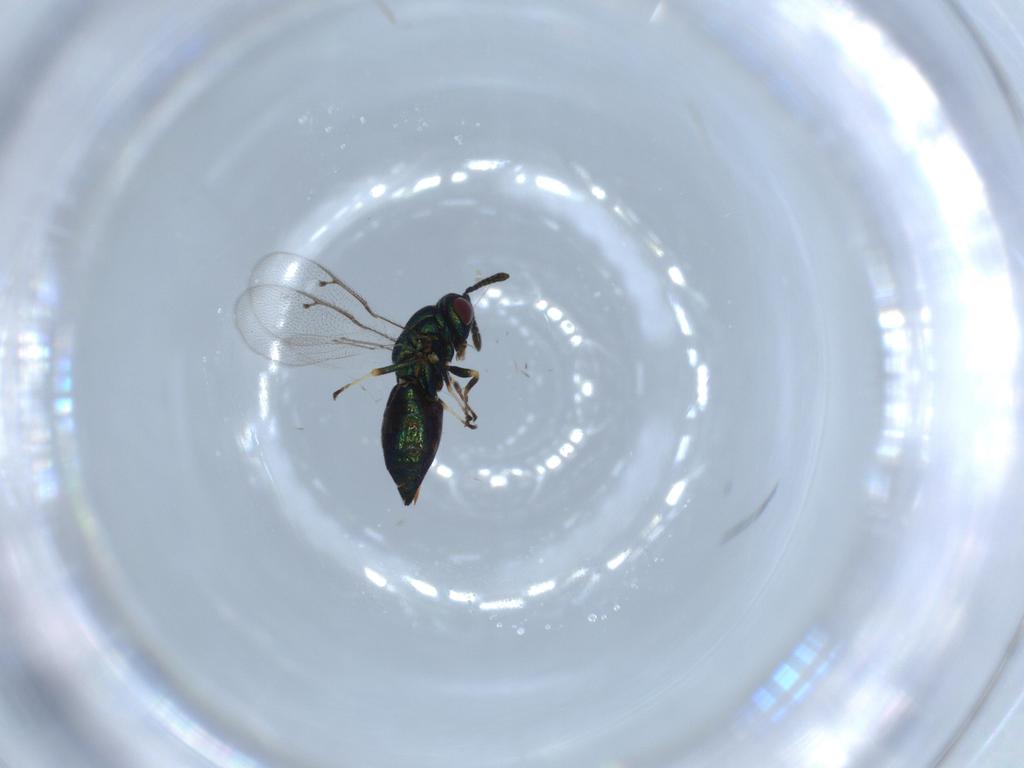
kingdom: Animalia
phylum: Arthropoda
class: Insecta
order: Hymenoptera
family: Pteromalidae
